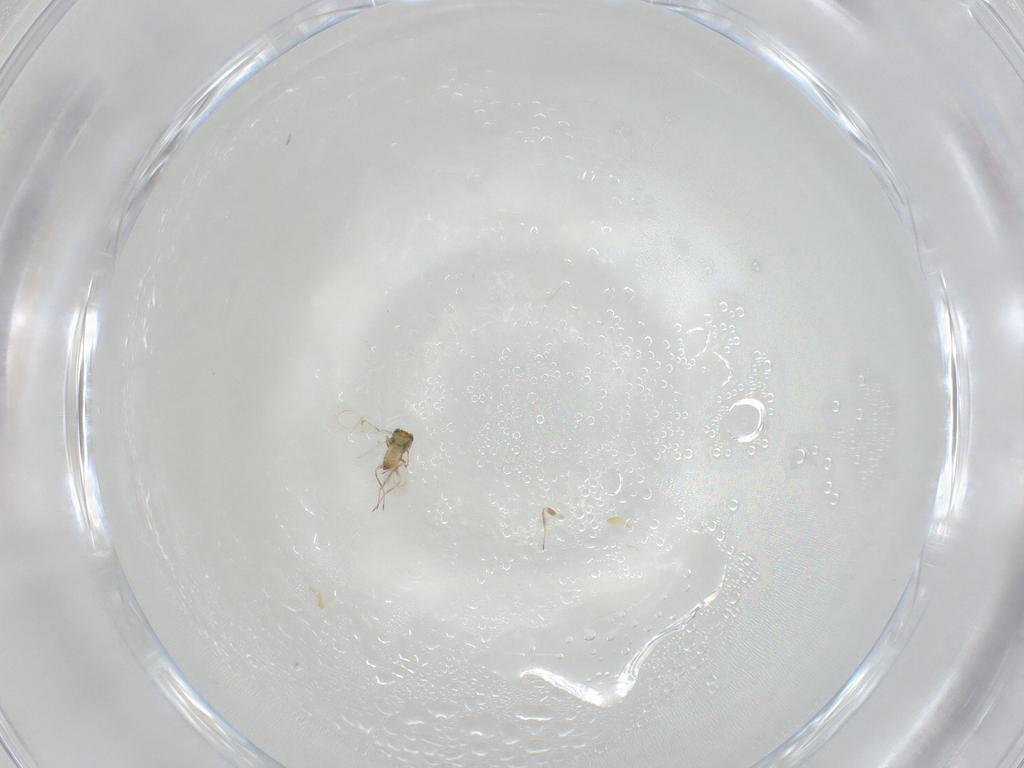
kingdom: Animalia
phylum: Arthropoda
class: Insecta
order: Hymenoptera
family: Trichogrammatidae
